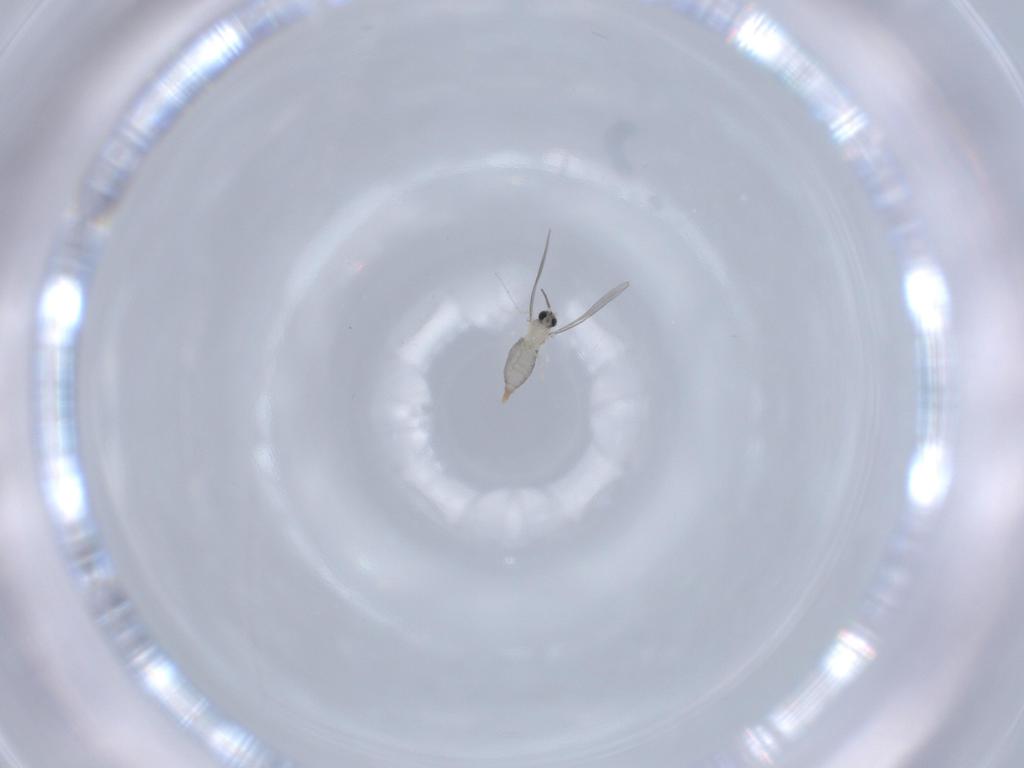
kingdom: Animalia
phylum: Arthropoda
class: Insecta
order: Diptera
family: Cecidomyiidae
